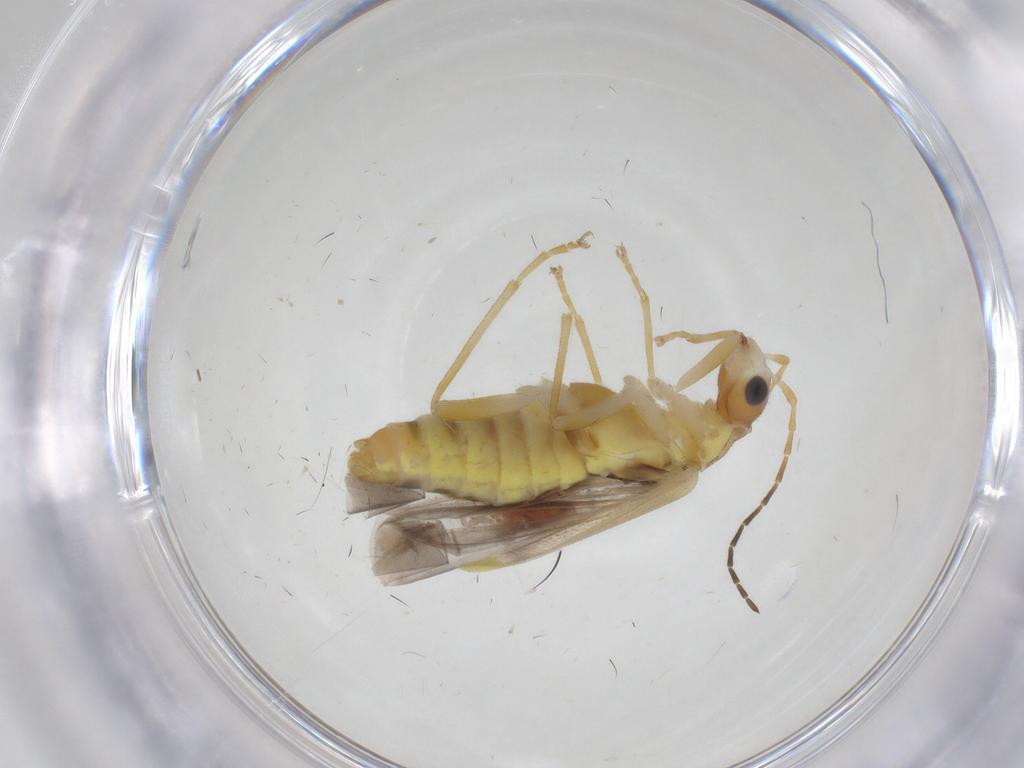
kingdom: Animalia
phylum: Arthropoda
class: Insecta
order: Coleoptera
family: Cantharidae
